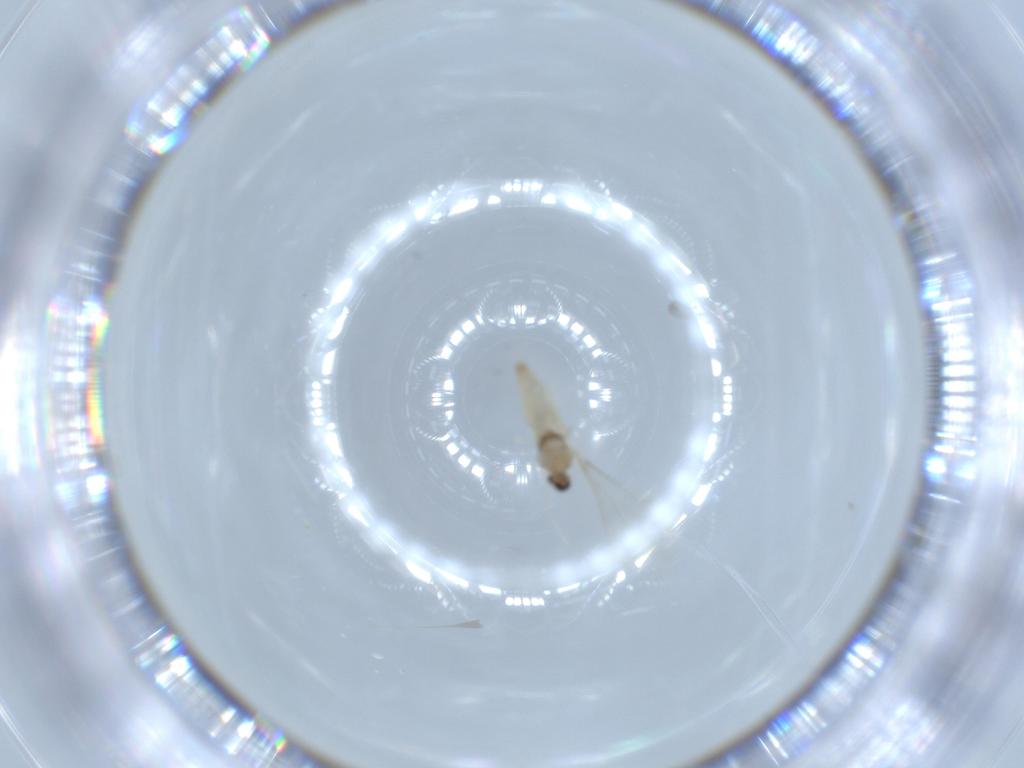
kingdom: Animalia
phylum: Arthropoda
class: Insecta
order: Diptera
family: Cecidomyiidae
